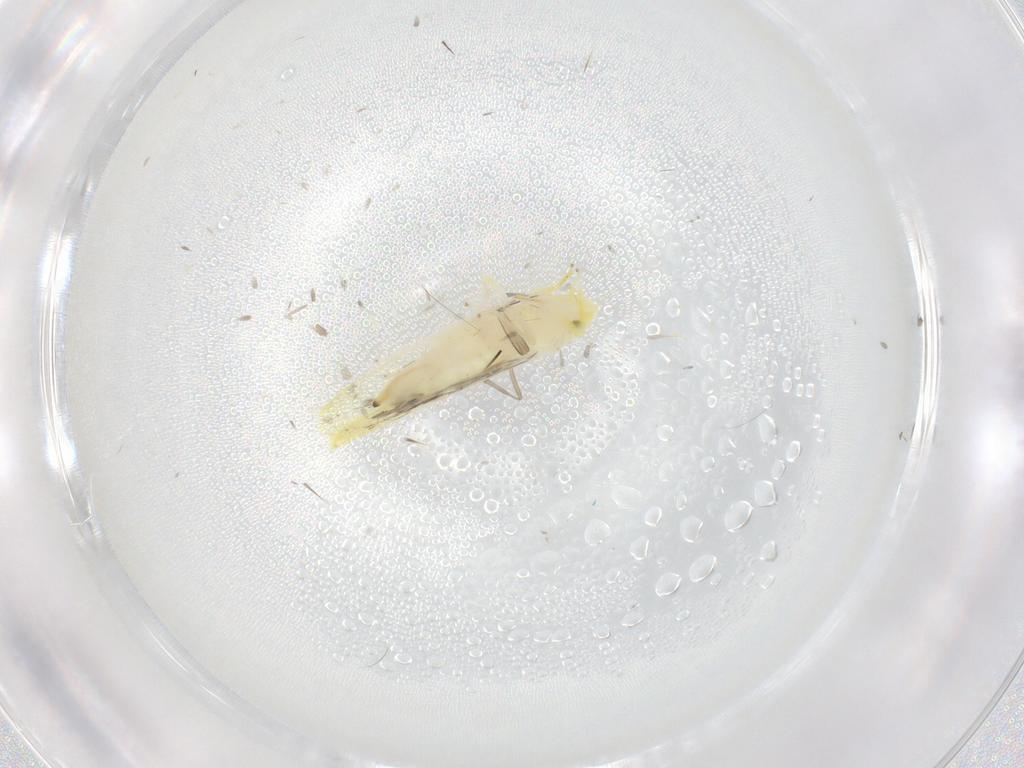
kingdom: Animalia
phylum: Arthropoda
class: Insecta
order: Hemiptera
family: Cicadellidae
